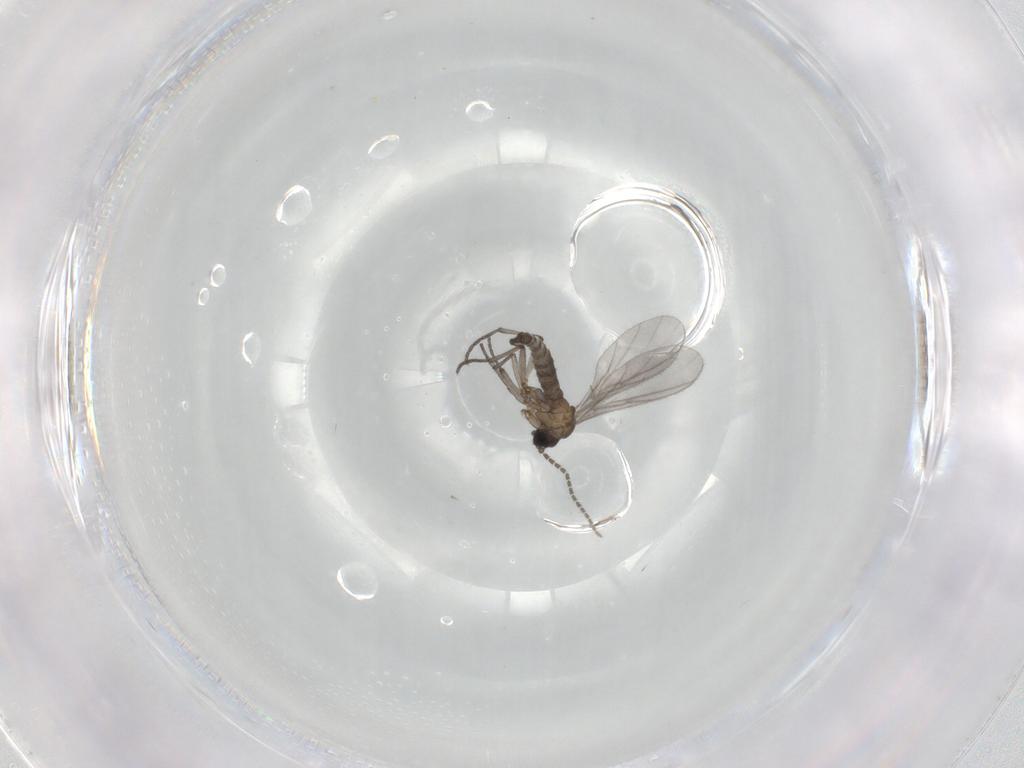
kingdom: Animalia
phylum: Arthropoda
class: Insecta
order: Diptera
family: Sciaridae
